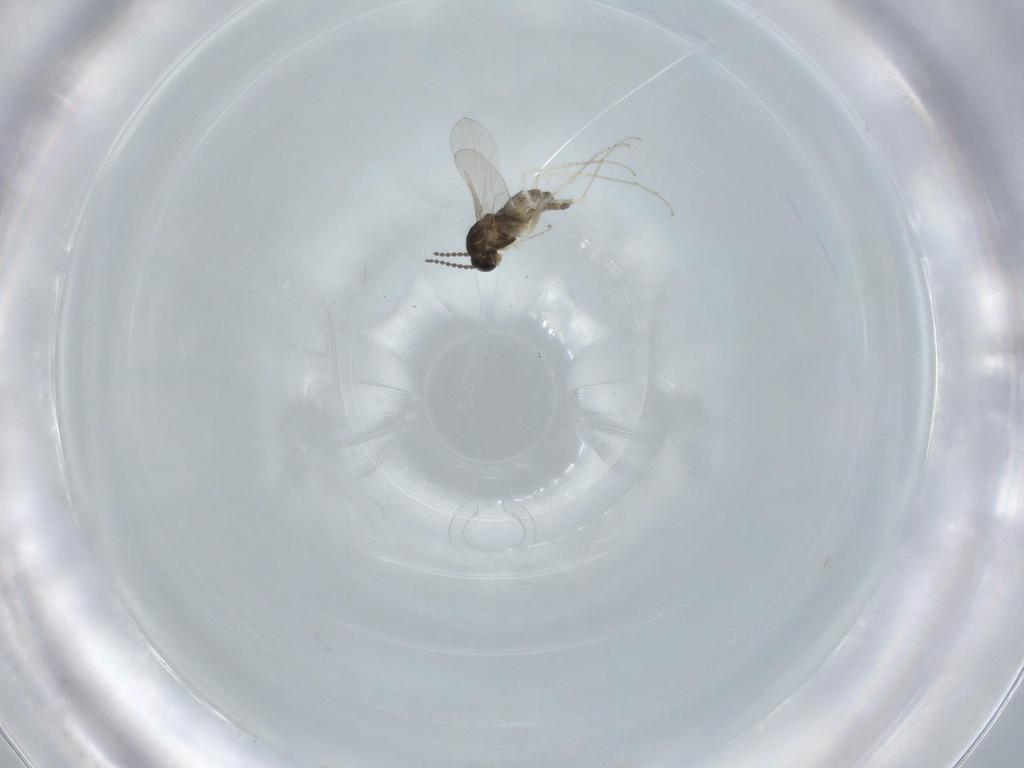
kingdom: Animalia
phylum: Arthropoda
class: Insecta
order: Diptera
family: Cecidomyiidae
